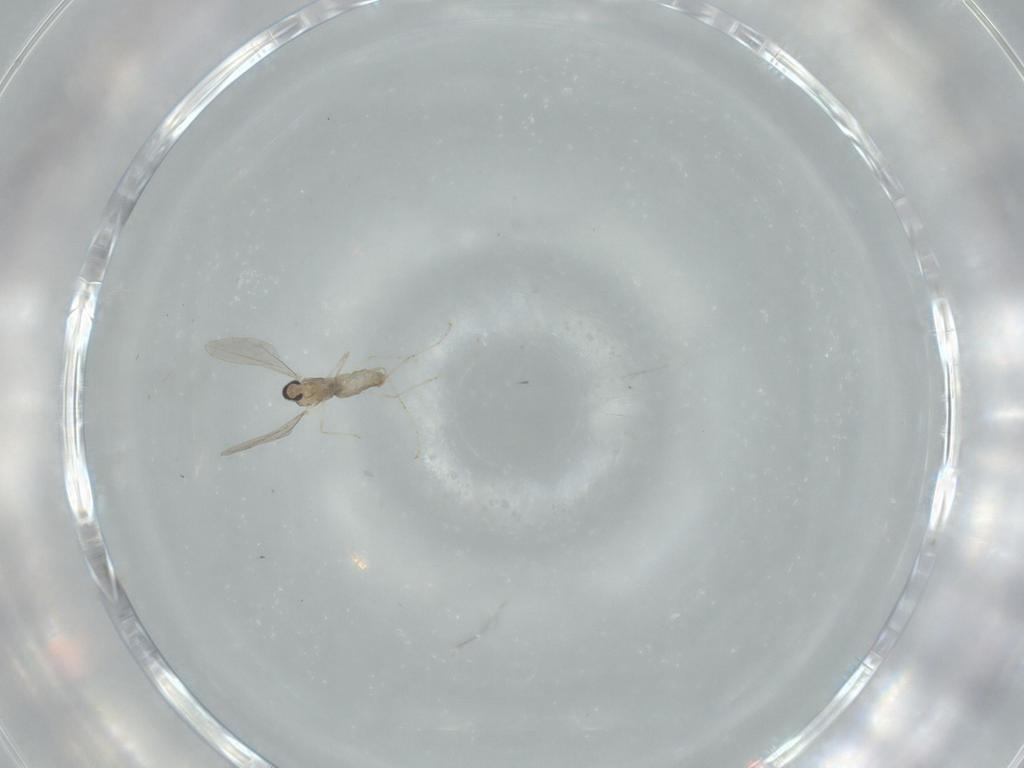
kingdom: Animalia
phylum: Arthropoda
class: Insecta
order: Diptera
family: Cecidomyiidae
